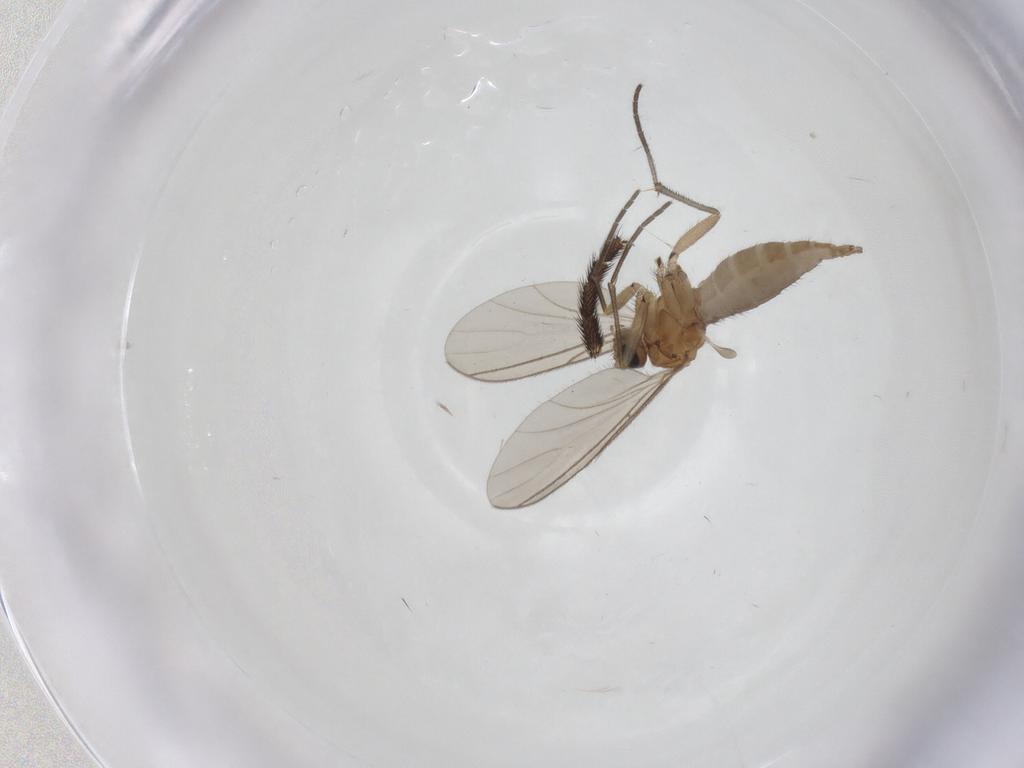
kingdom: Animalia
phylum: Arthropoda
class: Insecta
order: Diptera
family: Sciaridae
